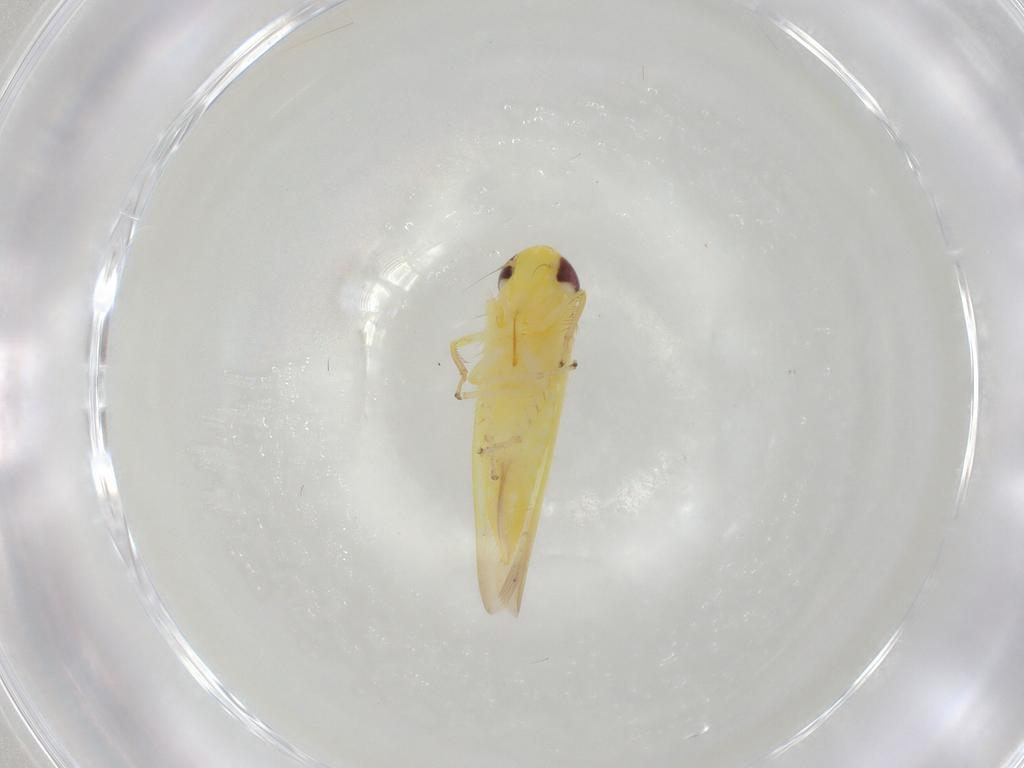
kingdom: Animalia
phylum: Arthropoda
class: Insecta
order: Hemiptera
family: Cicadellidae
